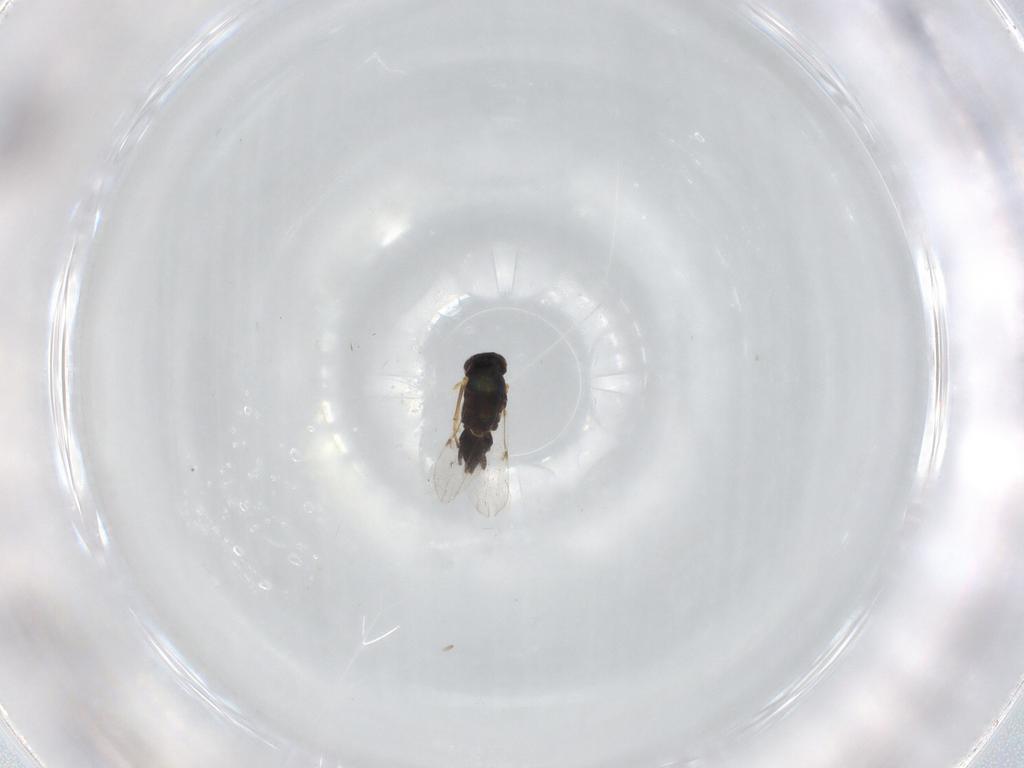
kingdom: Animalia
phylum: Arthropoda
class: Insecta
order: Hymenoptera
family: Encyrtidae
